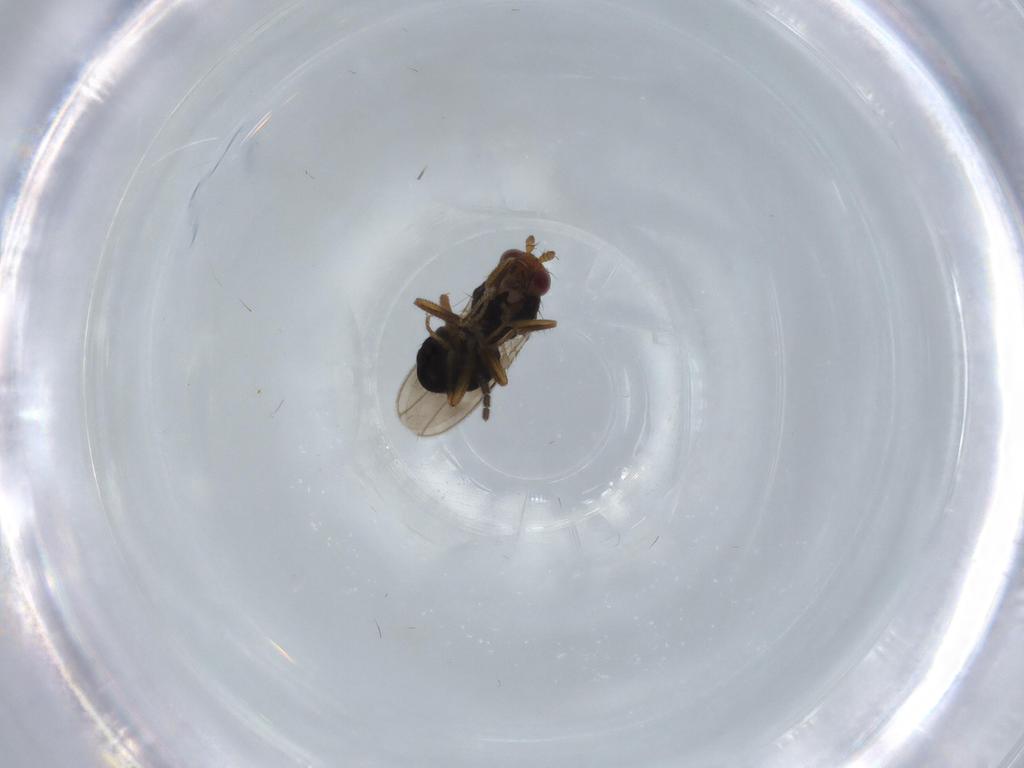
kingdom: Animalia
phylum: Arthropoda
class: Insecta
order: Diptera
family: Sphaeroceridae
